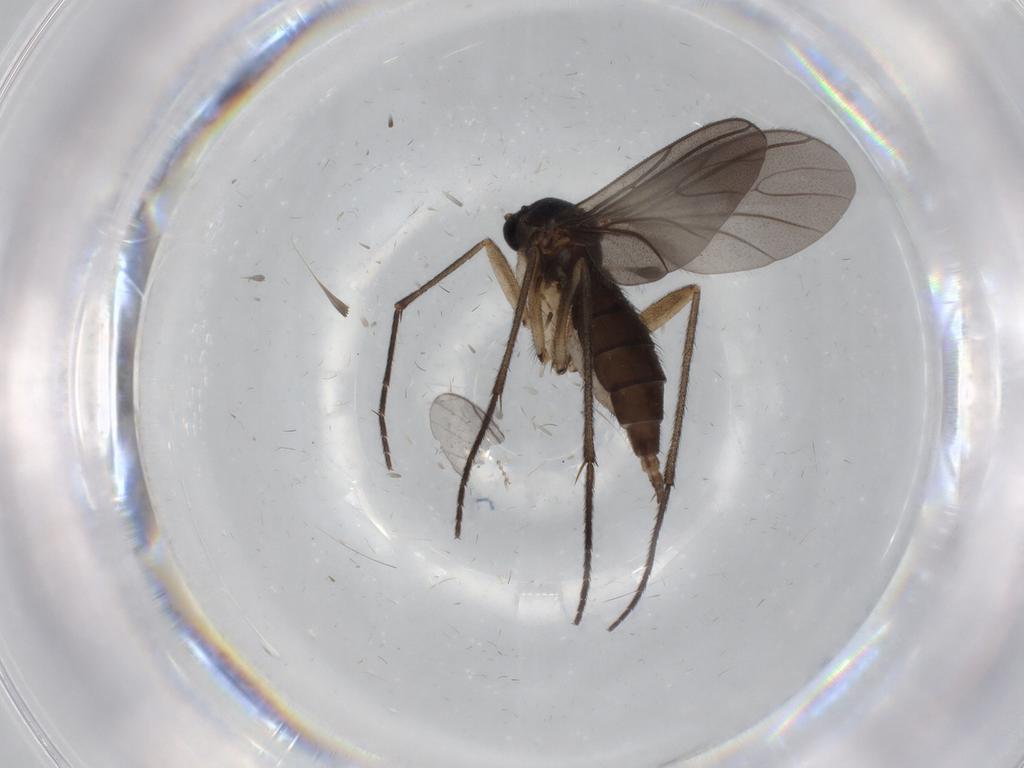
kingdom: Animalia
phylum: Arthropoda
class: Insecta
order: Diptera
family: Sciaridae
